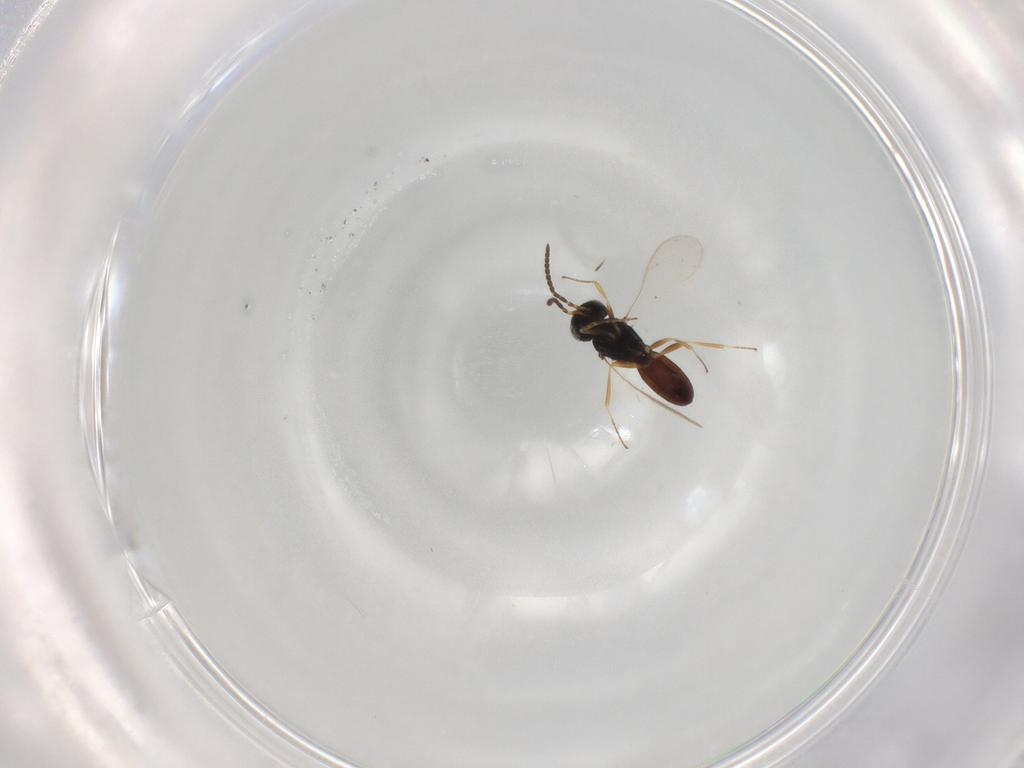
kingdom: Animalia
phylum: Arthropoda
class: Insecta
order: Hymenoptera
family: Scelionidae
